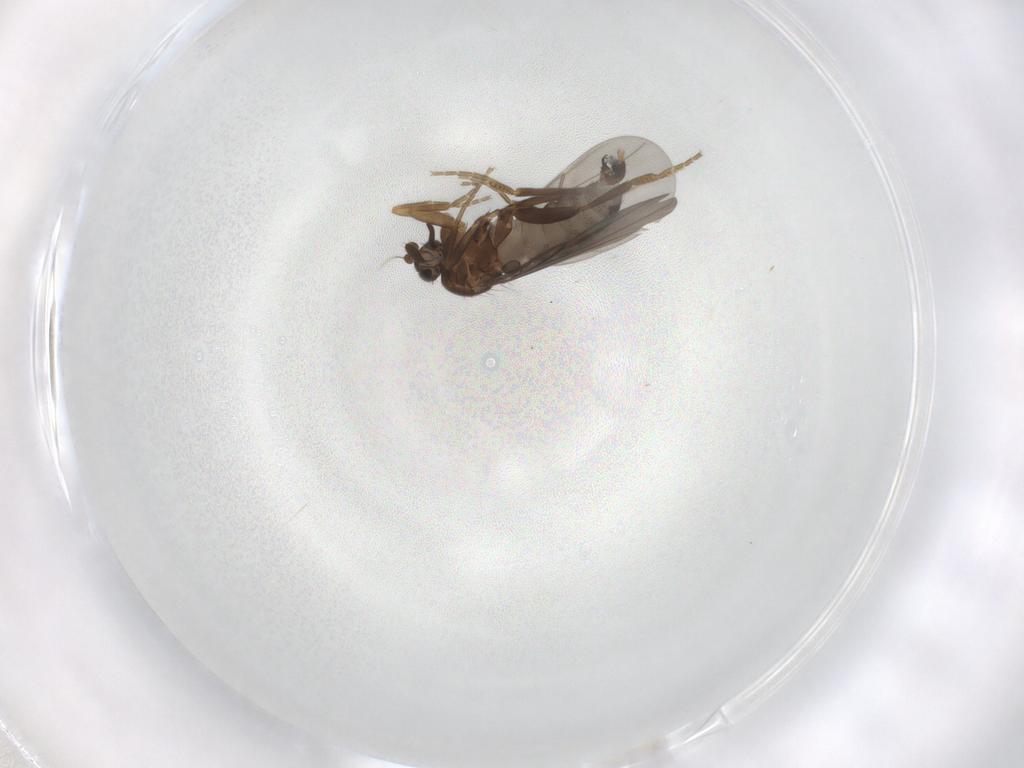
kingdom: Animalia
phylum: Arthropoda
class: Insecta
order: Diptera
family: Phoridae
